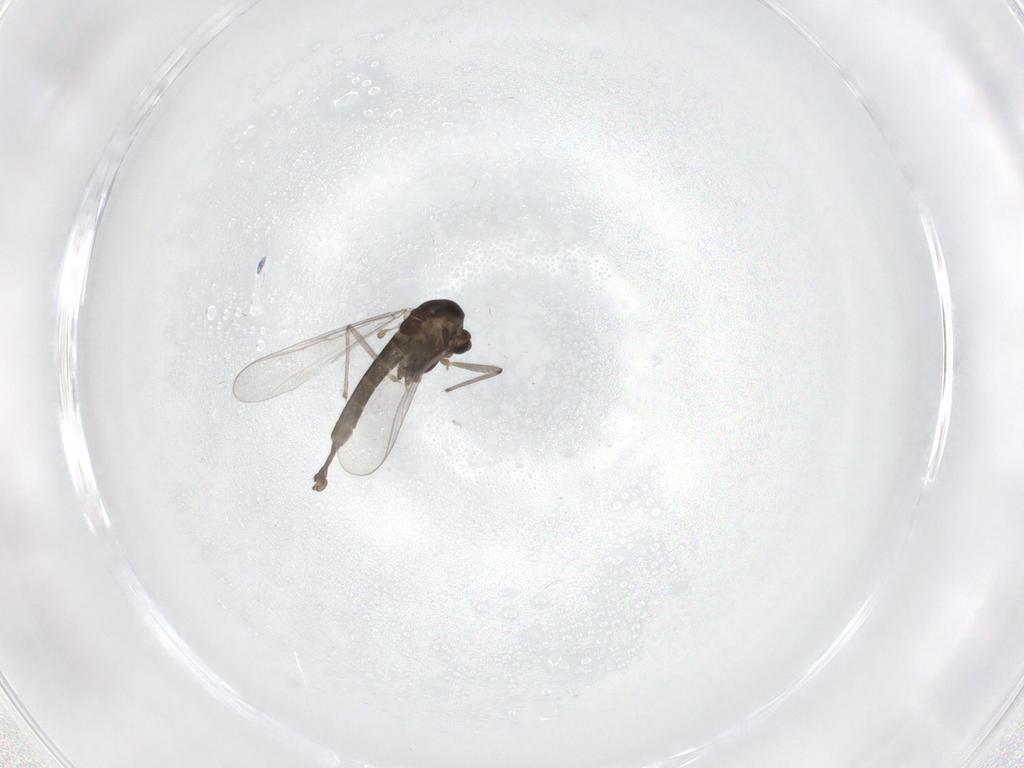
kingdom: Animalia
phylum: Arthropoda
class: Insecta
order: Diptera
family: Chironomidae
